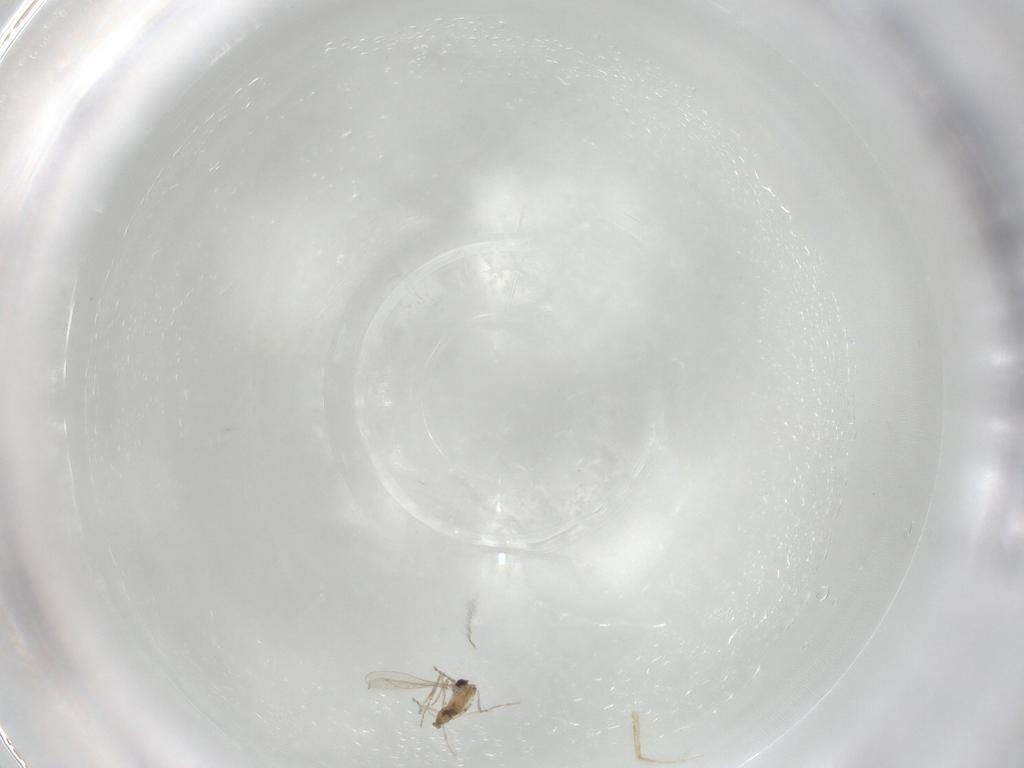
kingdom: Animalia
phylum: Arthropoda
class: Insecta
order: Diptera
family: Cecidomyiidae
